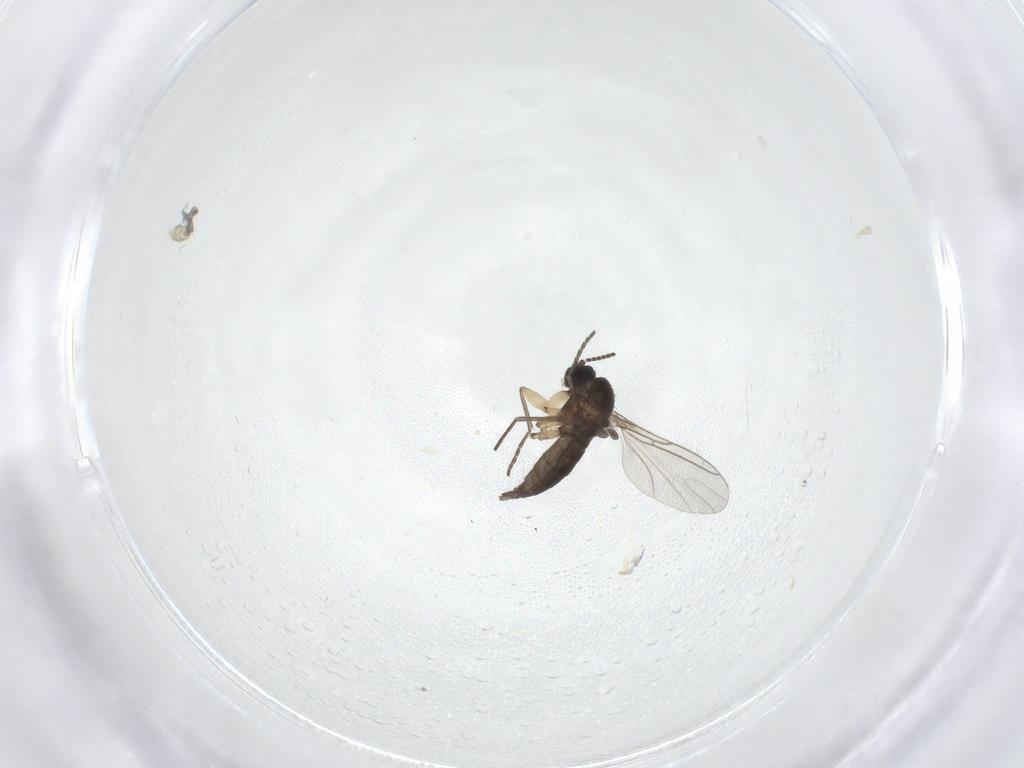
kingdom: Animalia
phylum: Arthropoda
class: Insecta
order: Diptera
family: Sciaridae
